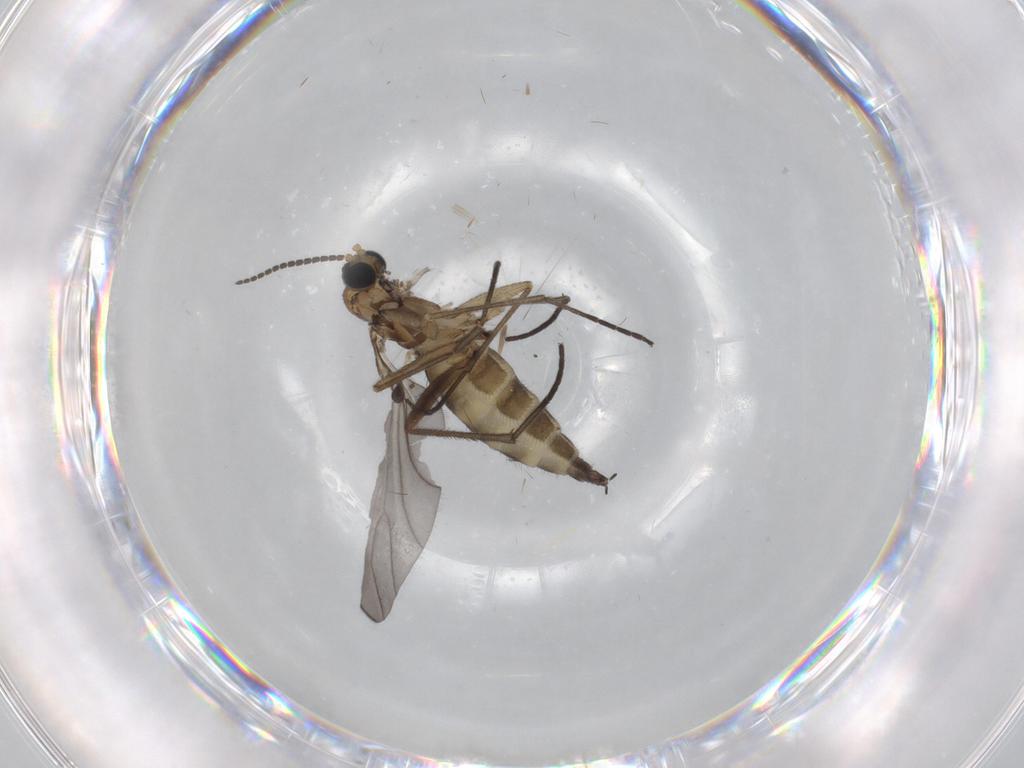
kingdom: Animalia
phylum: Arthropoda
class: Insecta
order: Diptera
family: Sciaridae
